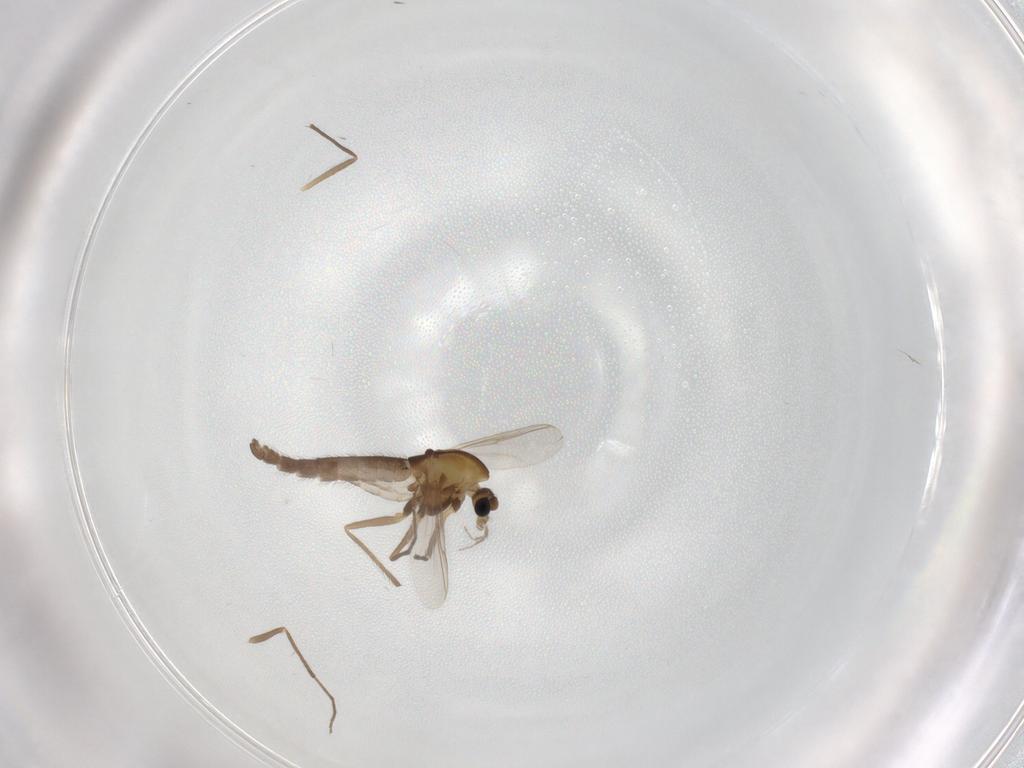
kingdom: Animalia
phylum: Arthropoda
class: Insecta
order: Diptera
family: Chironomidae
